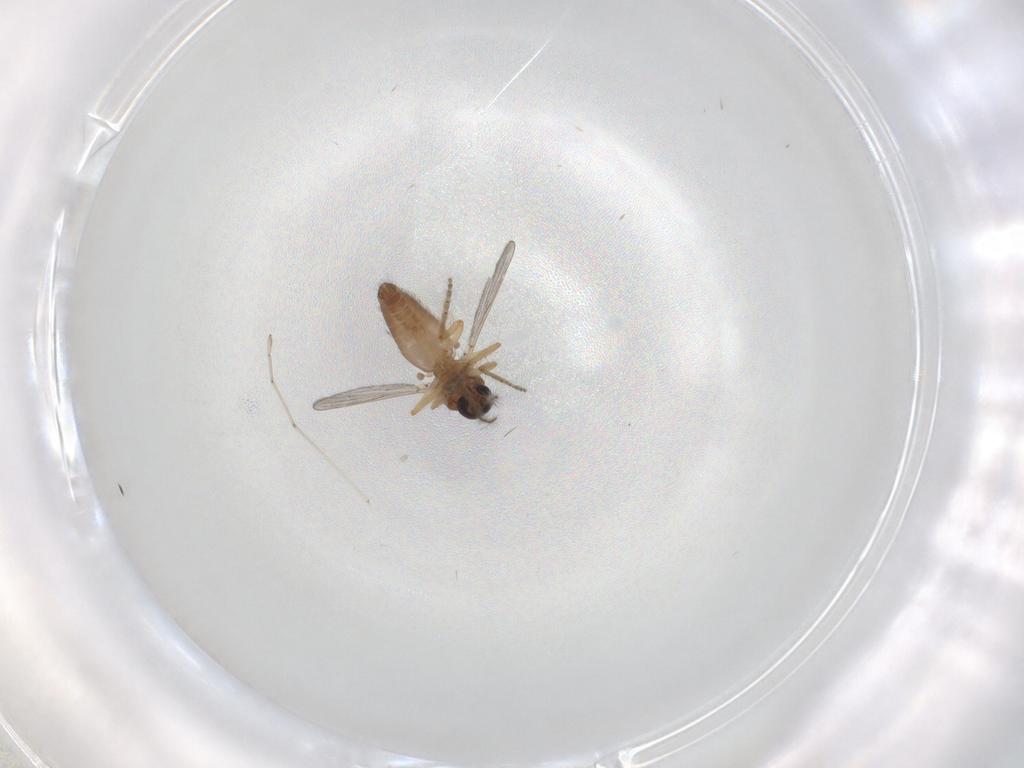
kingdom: Animalia
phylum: Arthropoda
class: Insecta
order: Diptera
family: Ceratopogonidae
